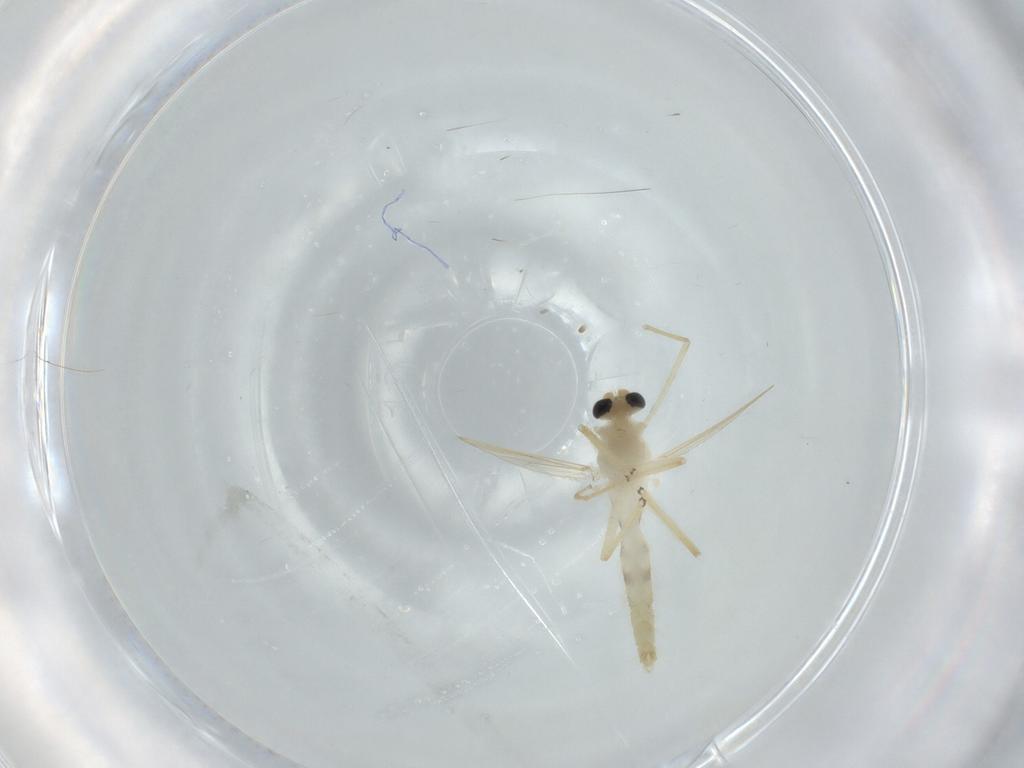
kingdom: Animalia
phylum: Arthropoda
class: Insecta
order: Diptera
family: Chironomidae
